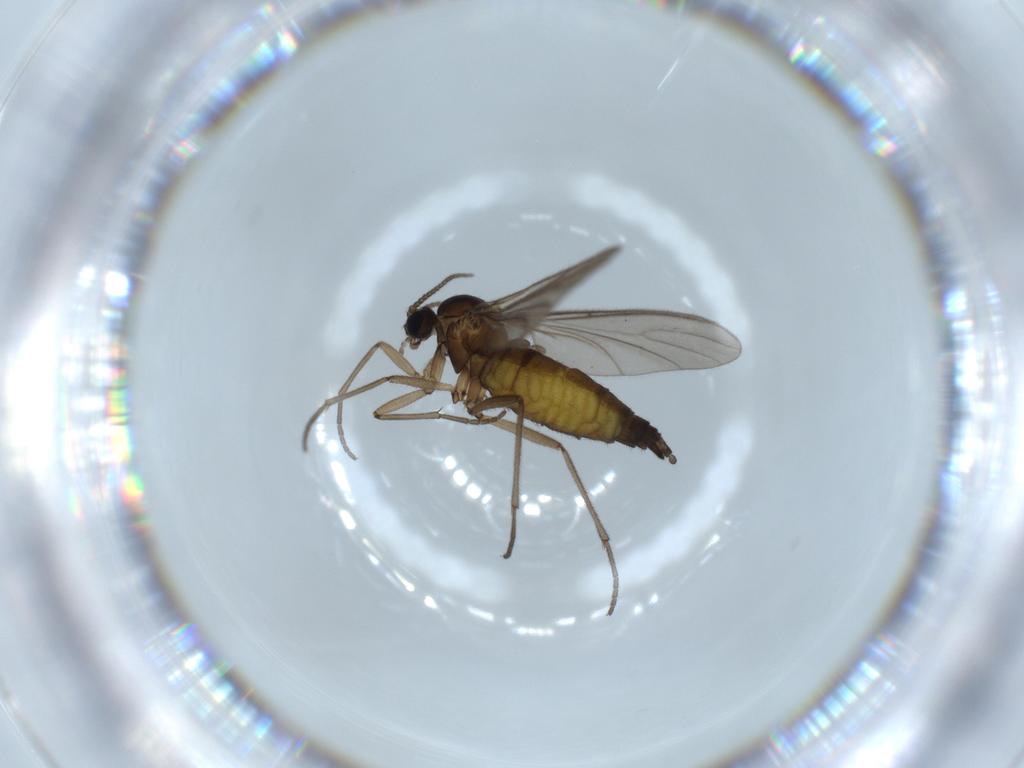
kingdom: Animalia
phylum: Arthropoda
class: Insecta
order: Diptera
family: Sciaridae
